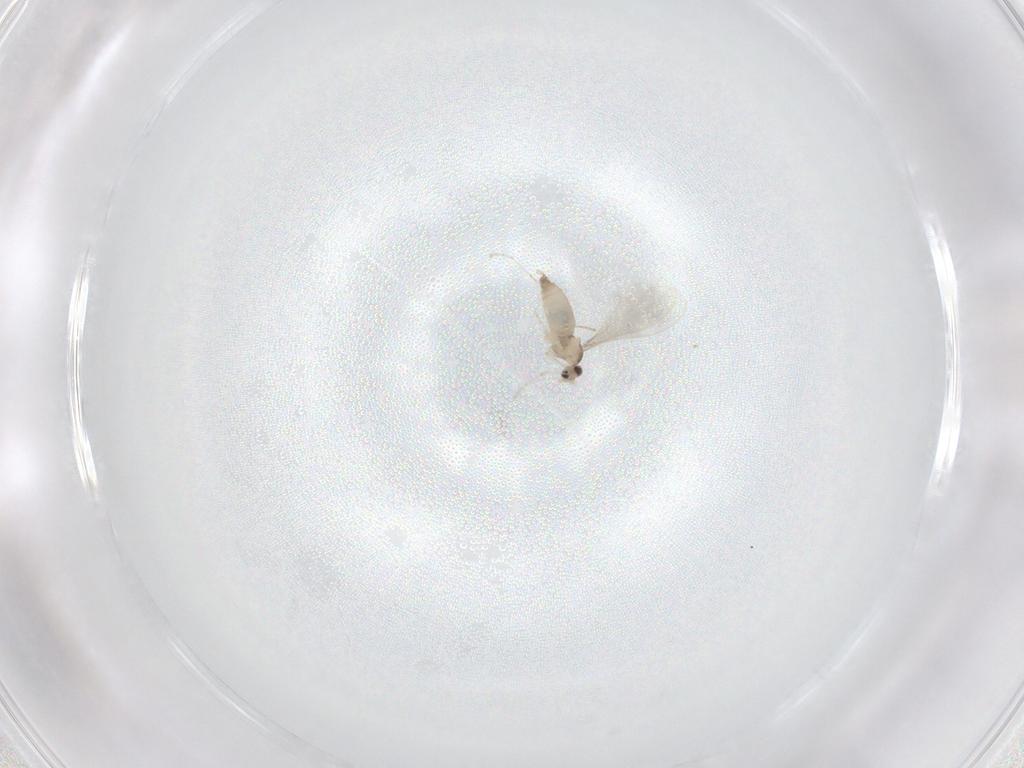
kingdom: Animalia
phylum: Arthropoda
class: Insecta
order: Diptera
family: Cecidomyiidae
